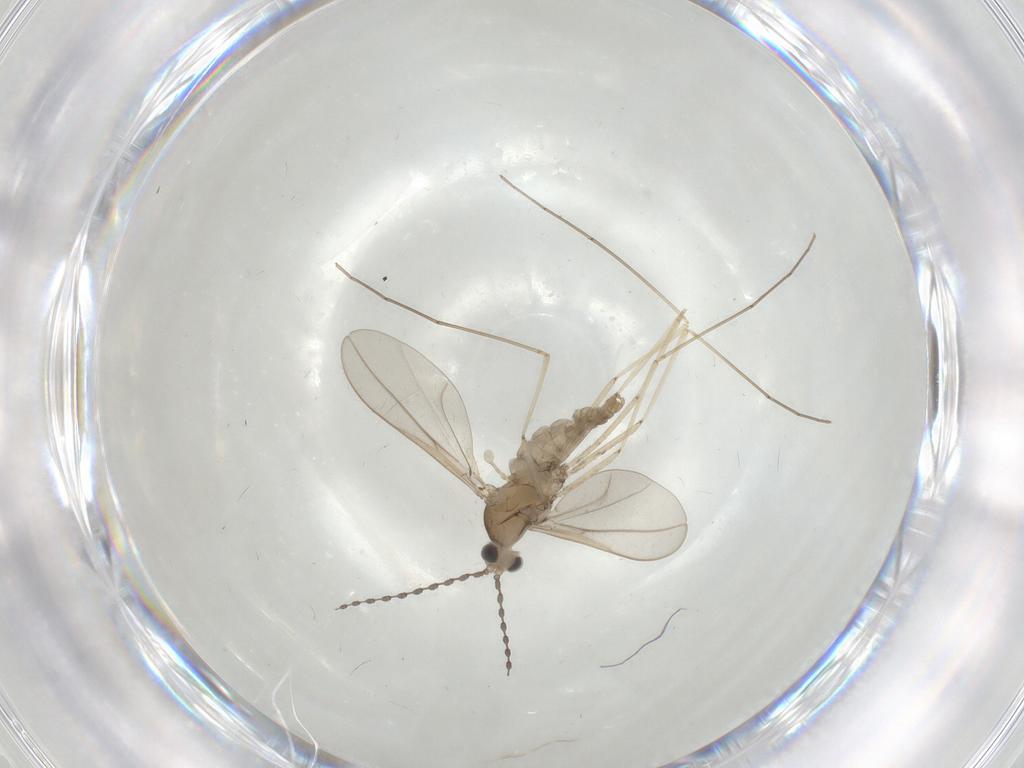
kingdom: Animalia
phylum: Arthropoda
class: Insecta
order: Diptera
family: Cecidomyiidae
